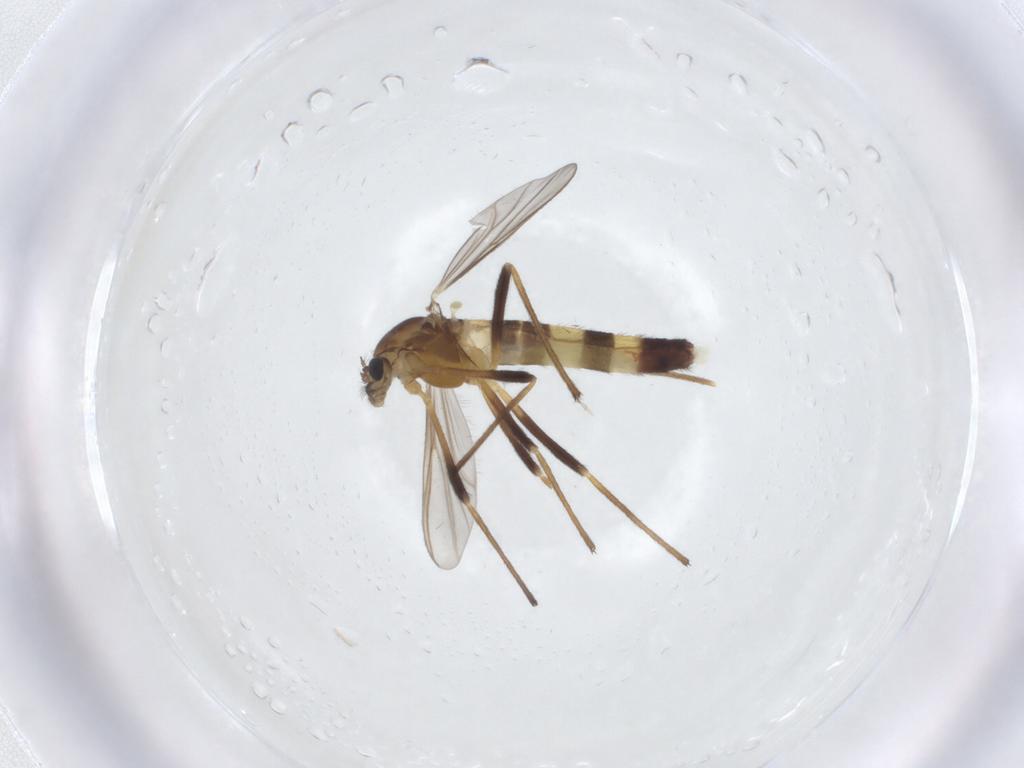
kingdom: Animalia
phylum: Arthropoda
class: Insecta
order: Diptera
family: Chironomidae
